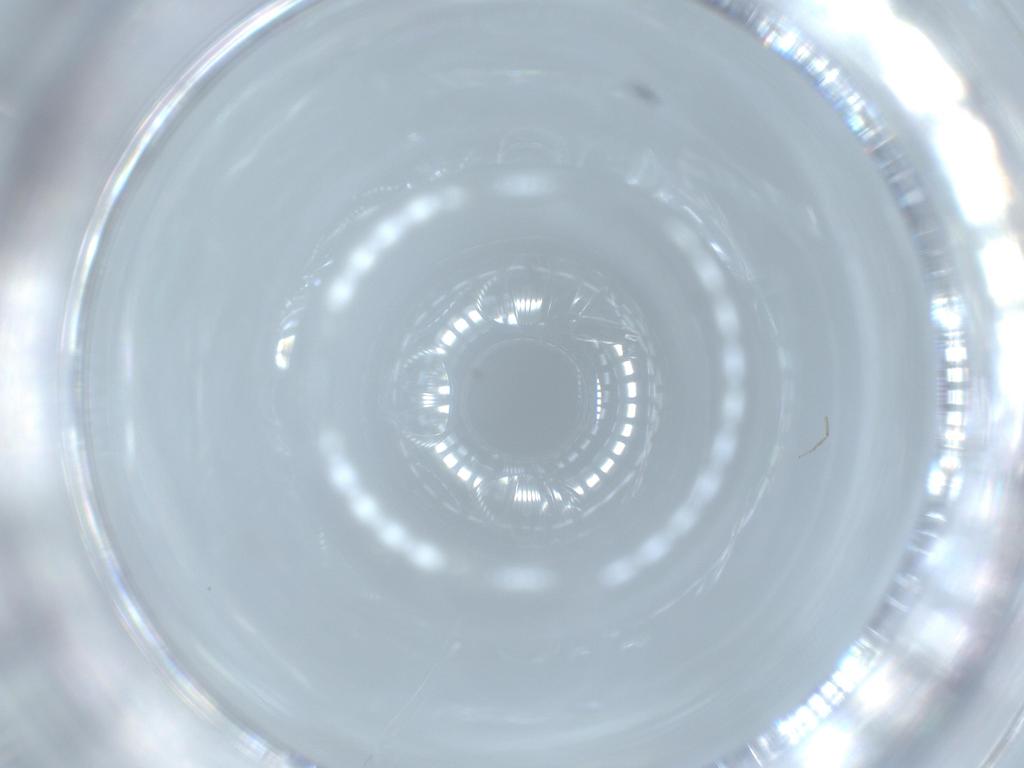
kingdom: Animalia
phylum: Arthropoda
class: Insecta
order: Diptera
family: Ceratopogonidae
